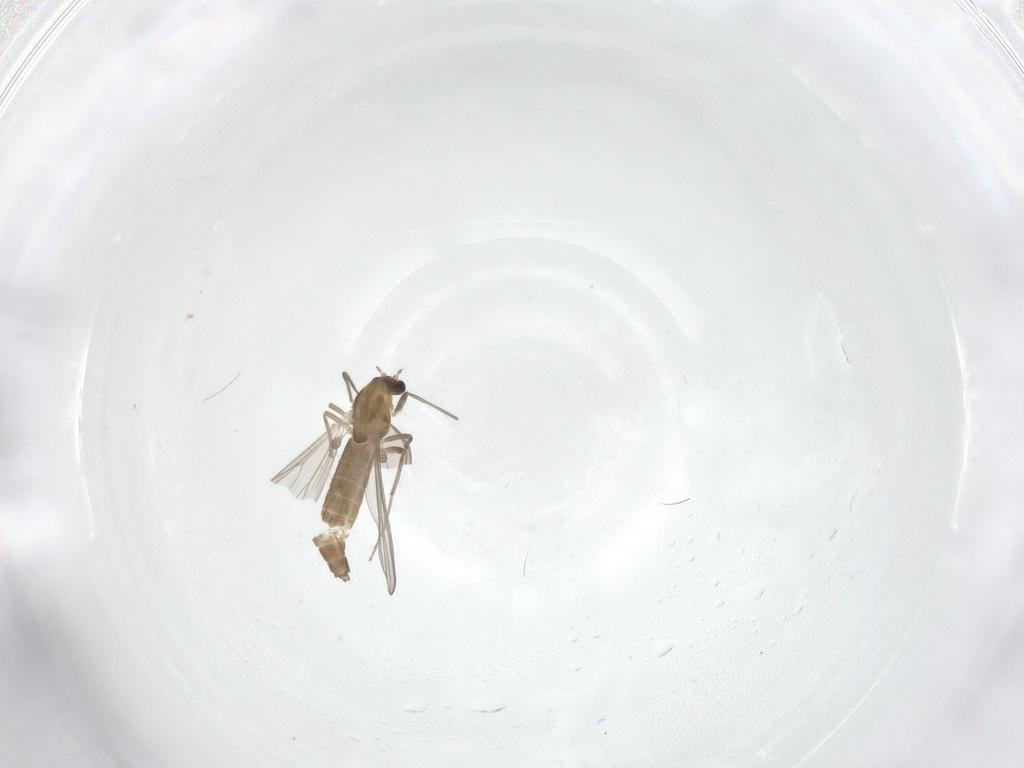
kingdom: Animalia
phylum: Arthropoda
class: Insecta
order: Diptera
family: Chironomidae
